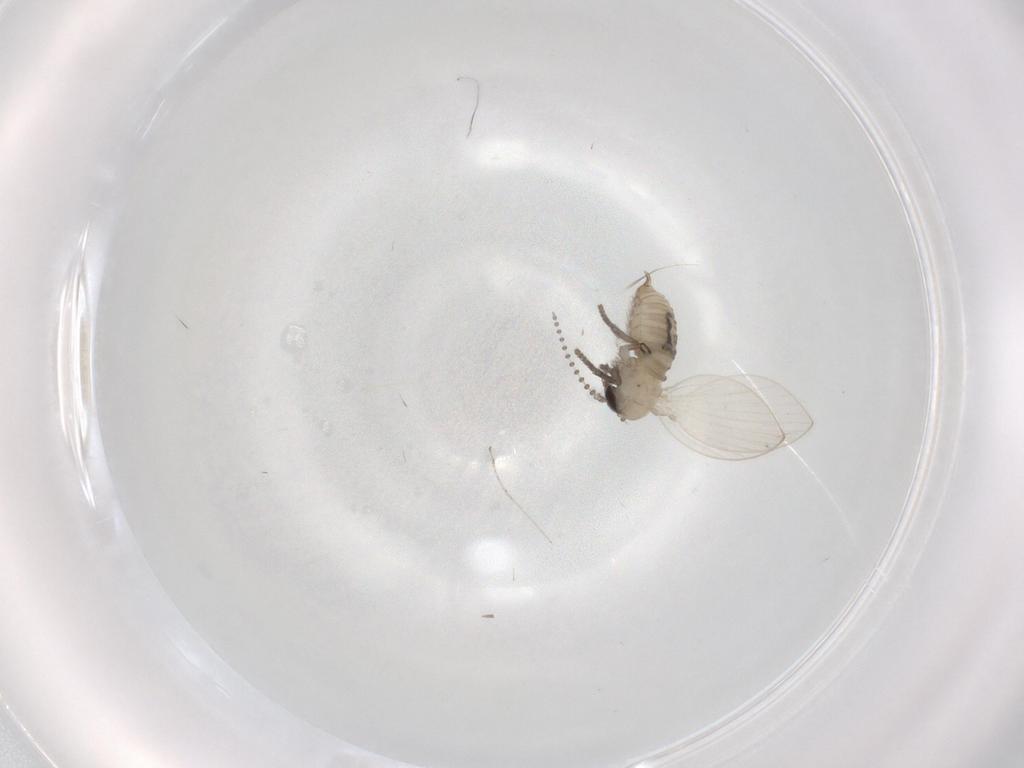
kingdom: Animalia
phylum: Arthropoda
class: Insecta
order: Diptera
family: Psychodidae
